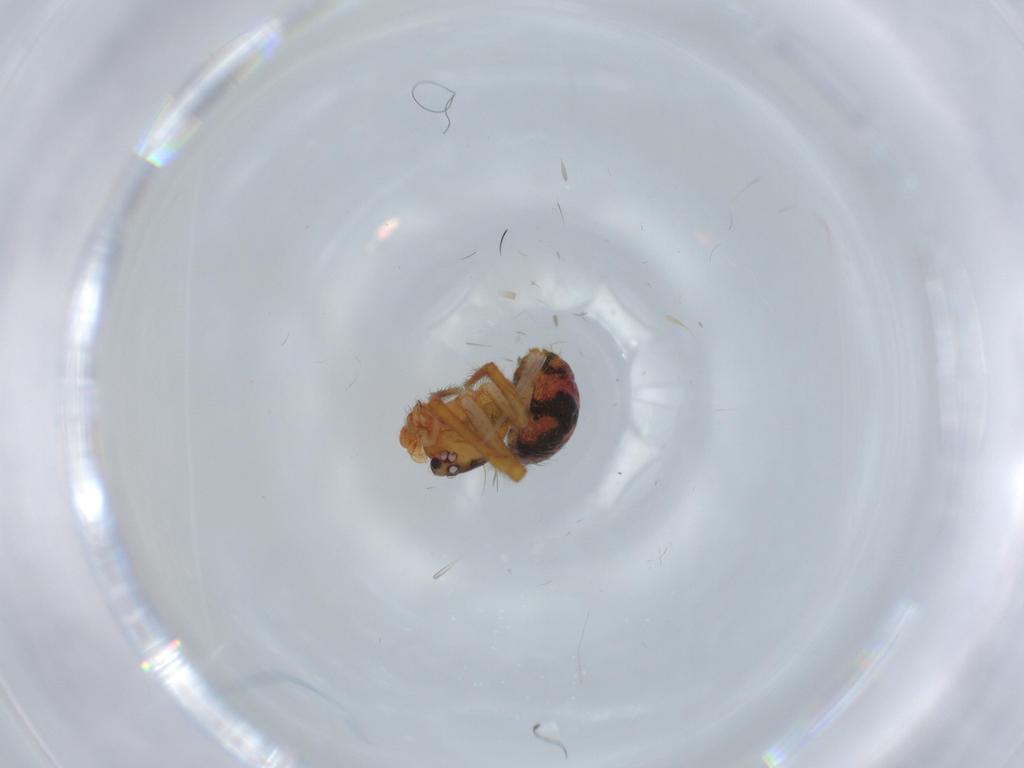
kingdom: Animalia
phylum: Arthropoda
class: Arachnida
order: Araneae
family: Theridiidae
